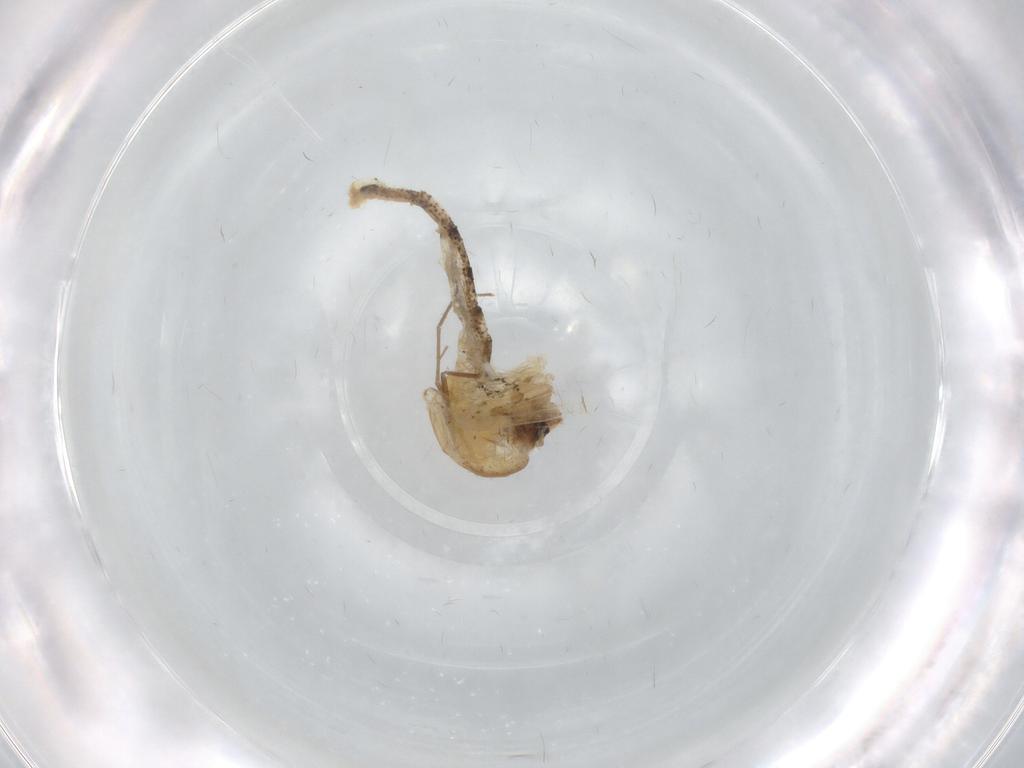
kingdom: Animalia
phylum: Arthropoda
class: Insecta
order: Diptera
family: Chaoboridae
